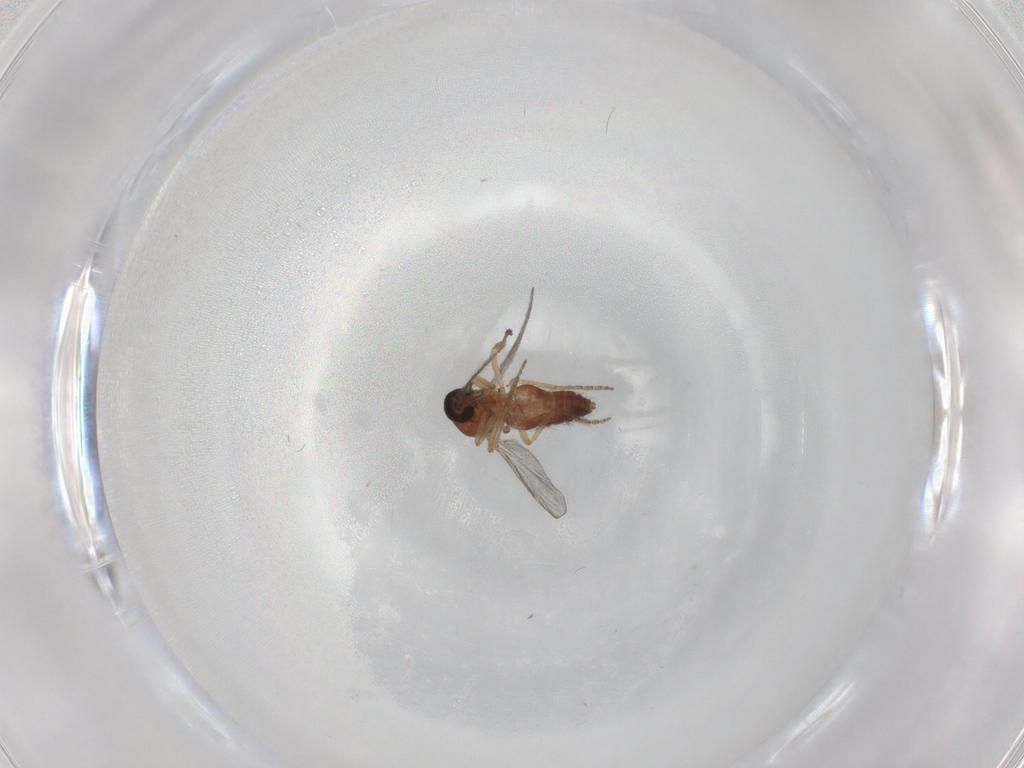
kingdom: Animalia
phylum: Arthropoda
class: Insecta
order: Diptera
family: Ceratopogonidae
